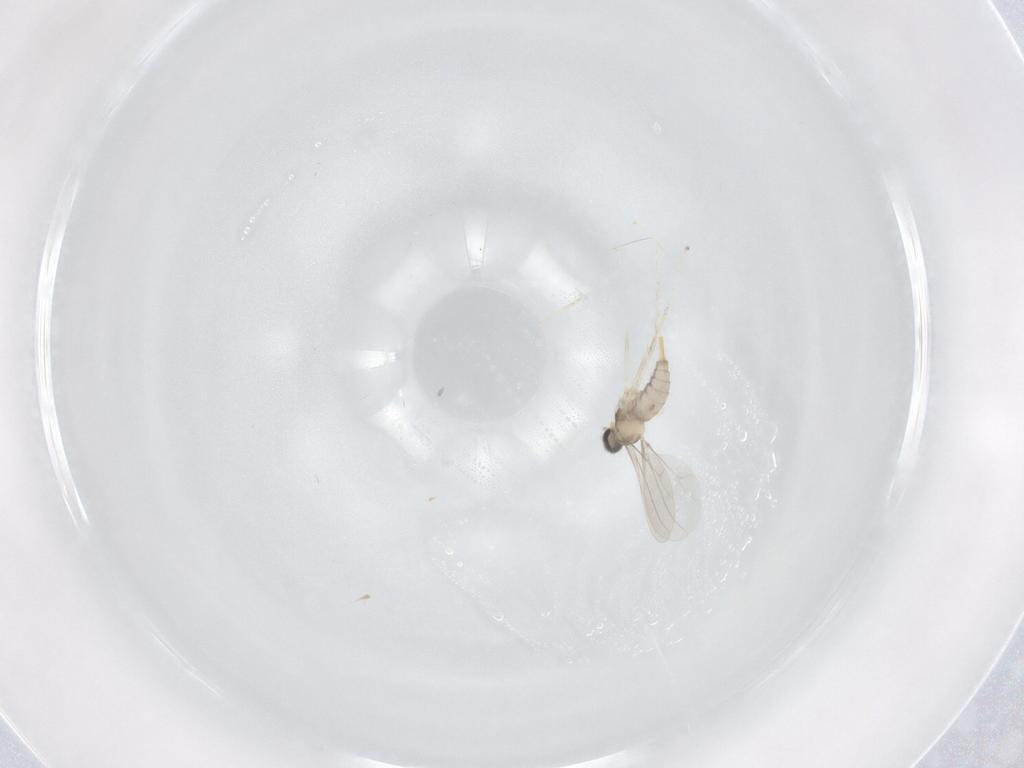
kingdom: Animalia
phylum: Arthropoda
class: Insecta
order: Diptera
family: Cecidomyiidae
